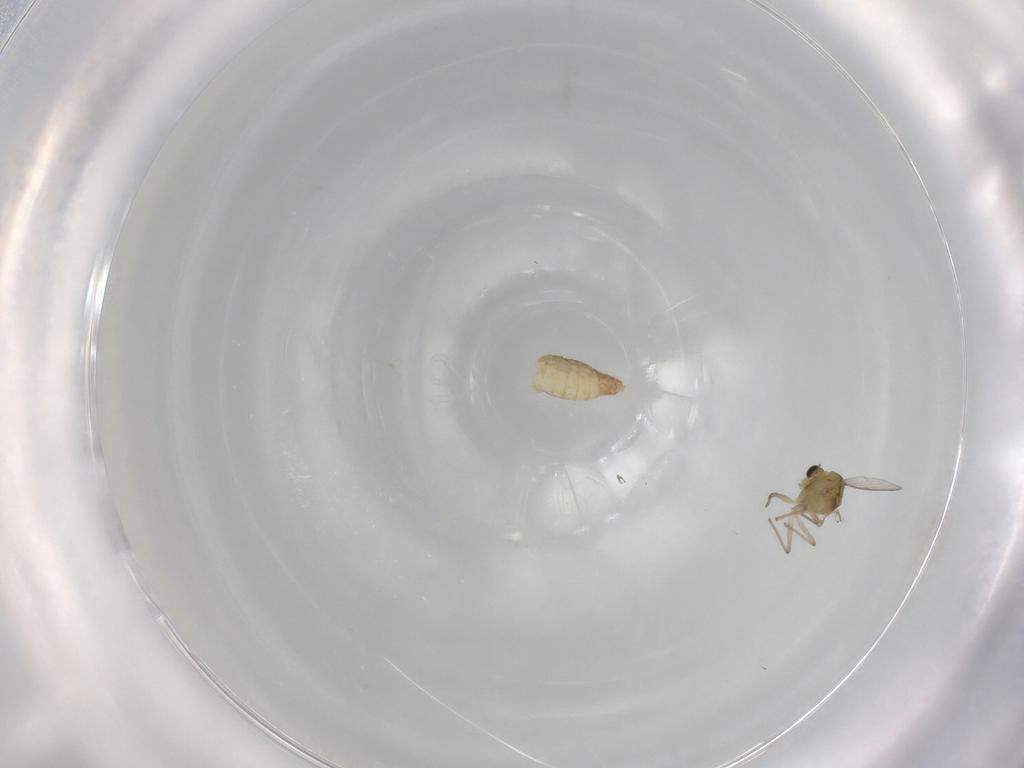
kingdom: Animalia
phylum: Arthropoda
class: Insecta
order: Diptera
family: Chironomidae
